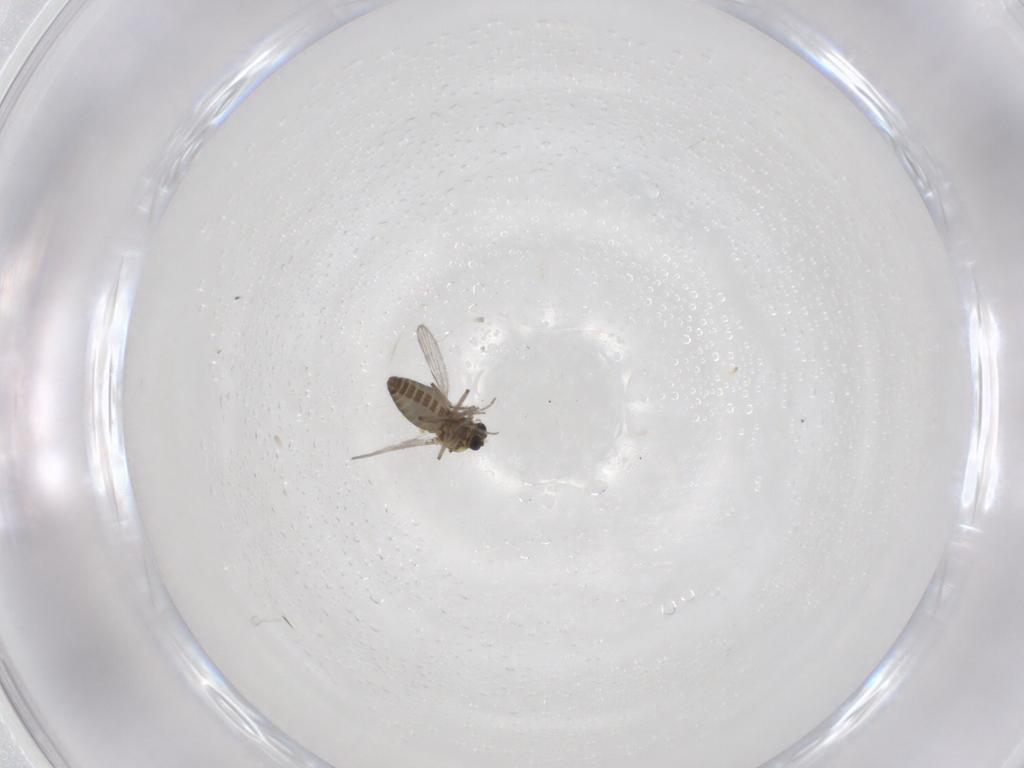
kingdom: Animalia
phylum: Arthropoda
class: Insecta
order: Diptera
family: Ceratopogonidae
